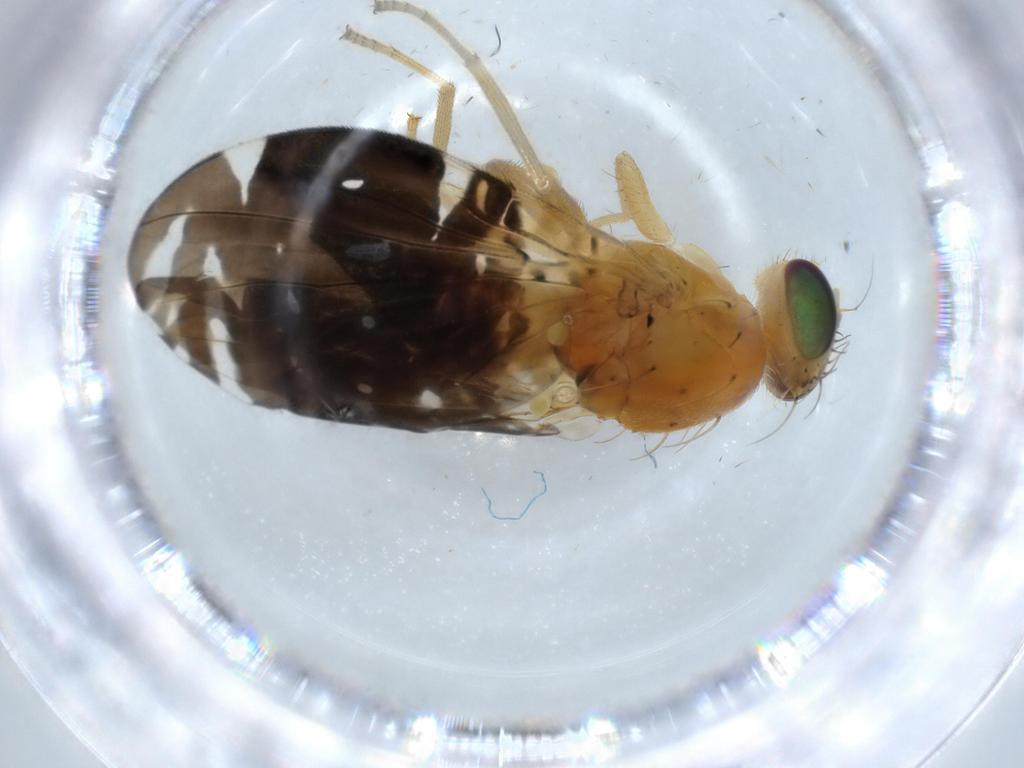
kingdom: Animalia
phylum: Arthropoda
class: Insecta
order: Diptera
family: Tephritidae
